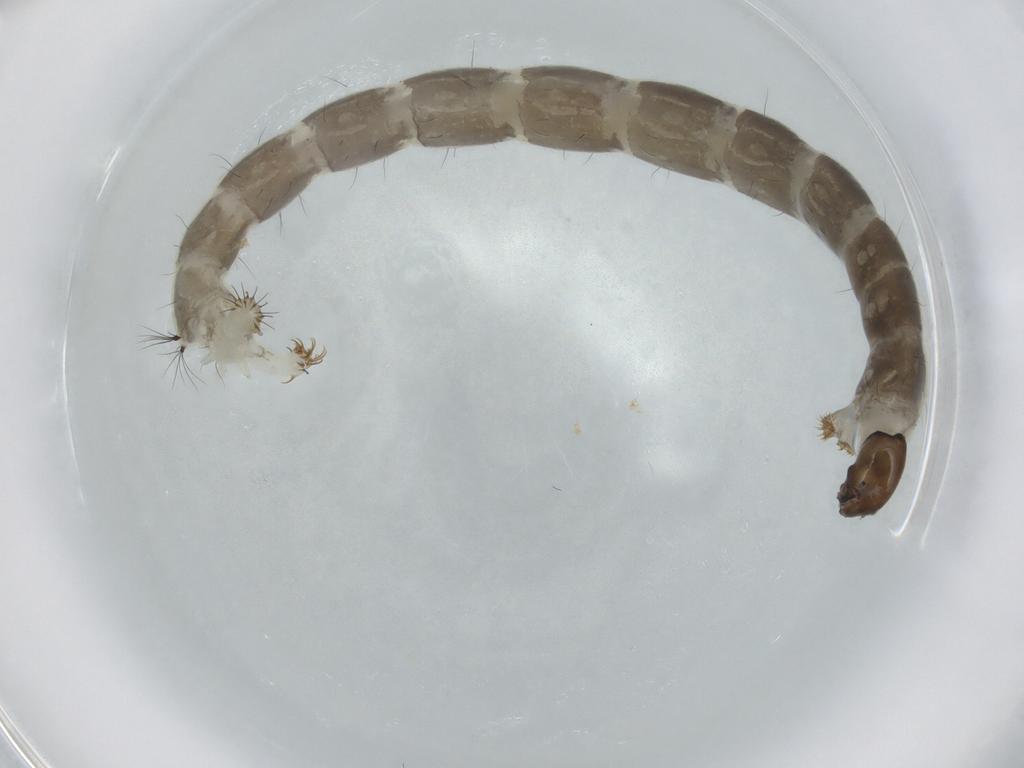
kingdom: Animalia
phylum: Arthropoda
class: Insecta
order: Diptera
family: Chironomidae
